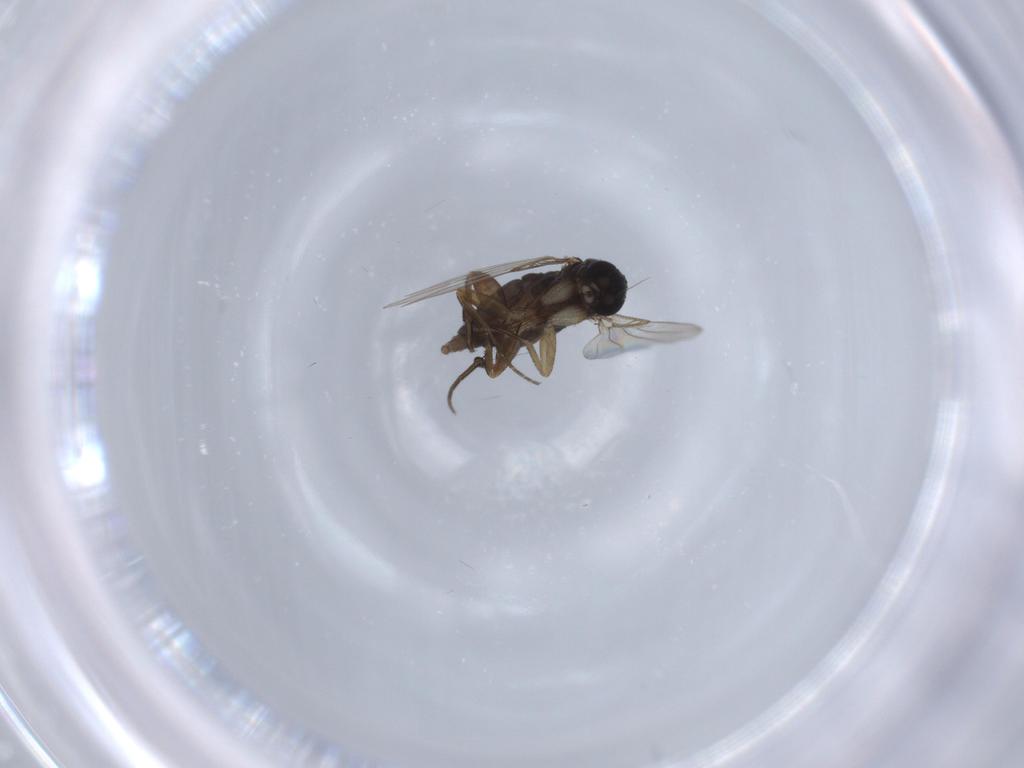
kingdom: Animalia
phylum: Arthropoda
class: Insecta
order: Diptera
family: Phoridae
